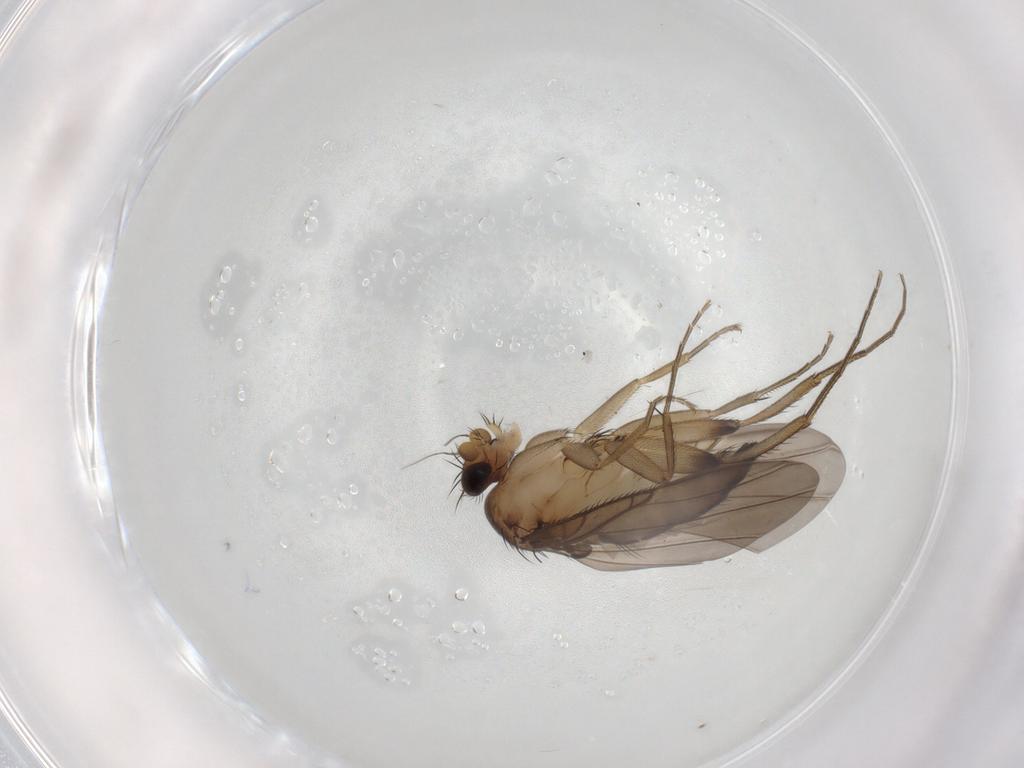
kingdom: Animalia
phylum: Arthropoda
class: Insecta
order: Diptera
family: Phoridae
